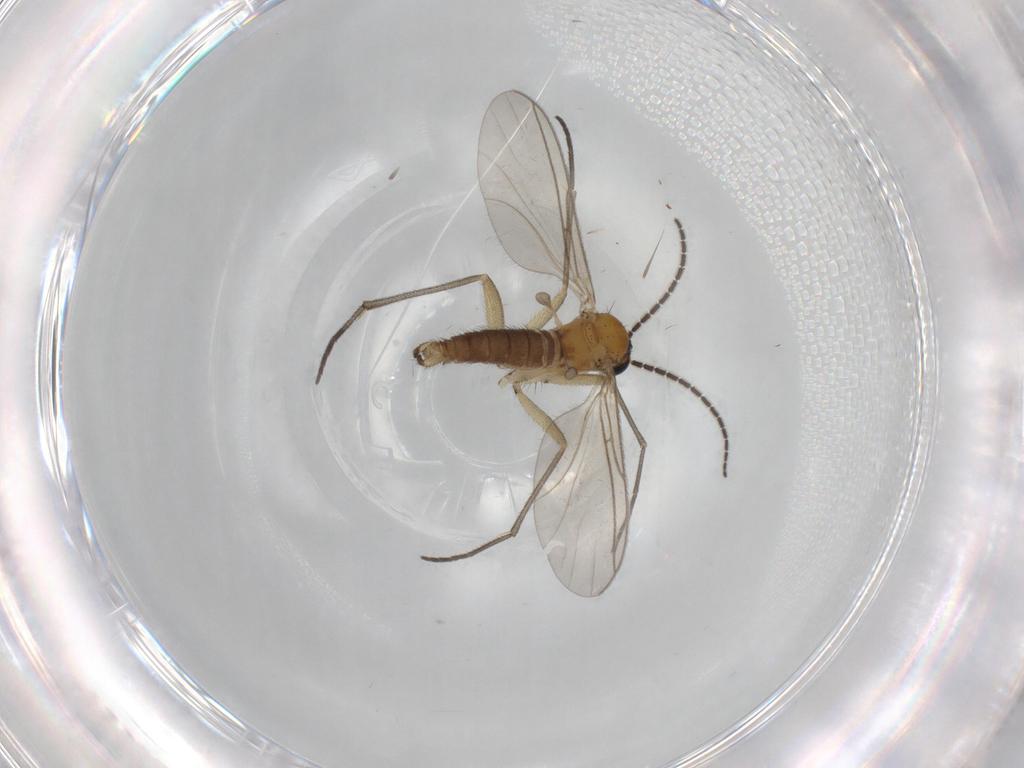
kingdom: Animalia
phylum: Arthropoda
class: Insecta
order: Diptera
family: Sciaridae
